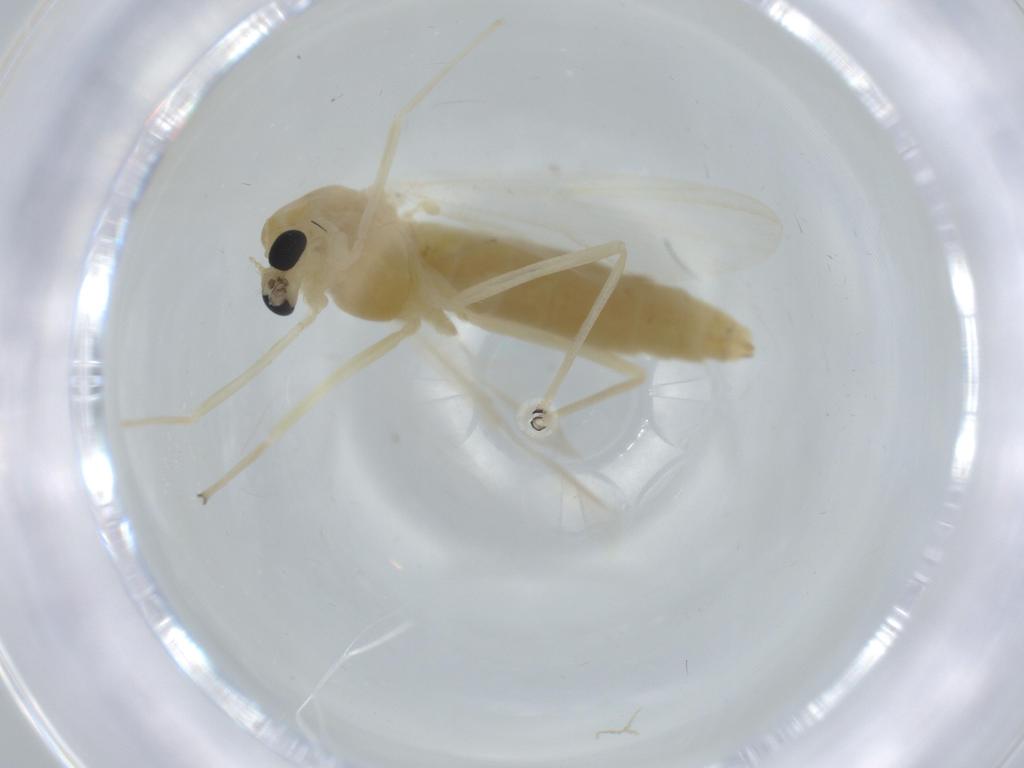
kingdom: Animalia
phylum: Arthropoda
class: Insecta
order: Diptera
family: Chironomidae
